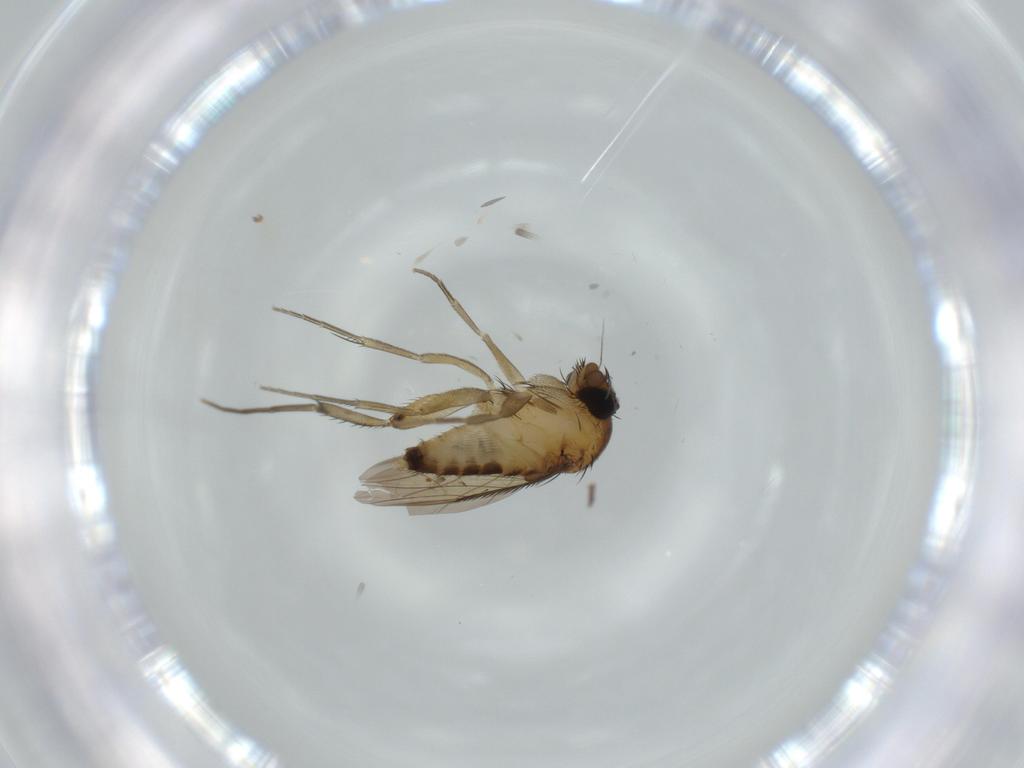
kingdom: Animalia
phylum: Arthropoda
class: Insecta
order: Diptera
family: Phoridae
